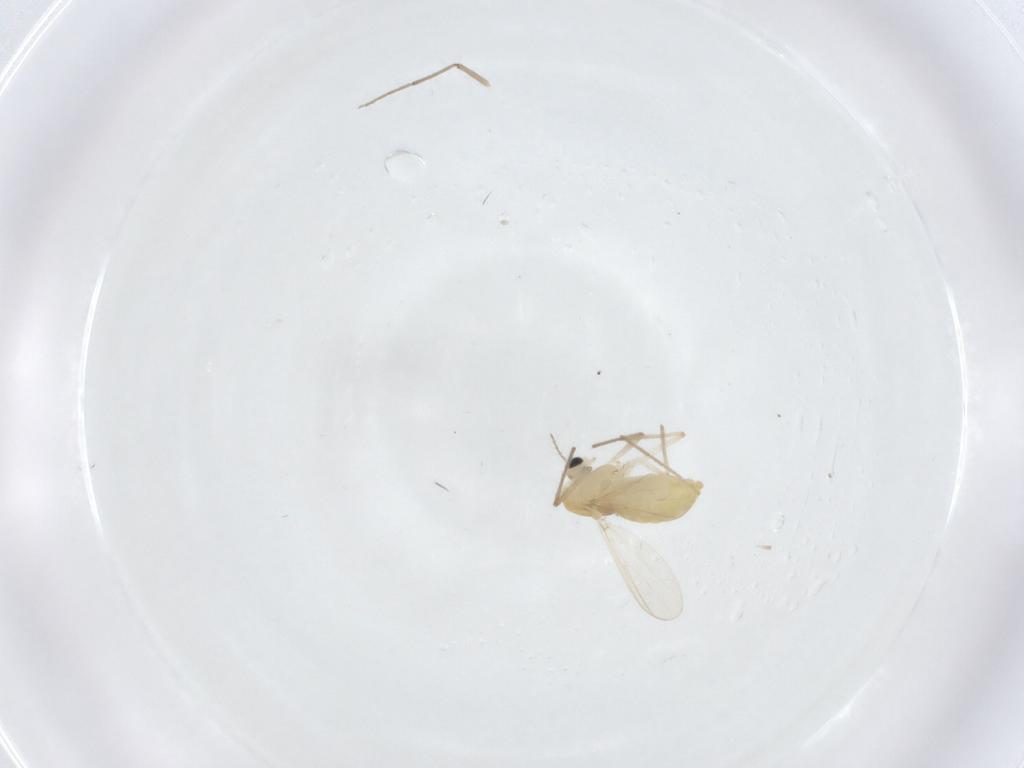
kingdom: Animalia
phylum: Arthropoda
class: Insecta
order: Diptera
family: Chironomidae
